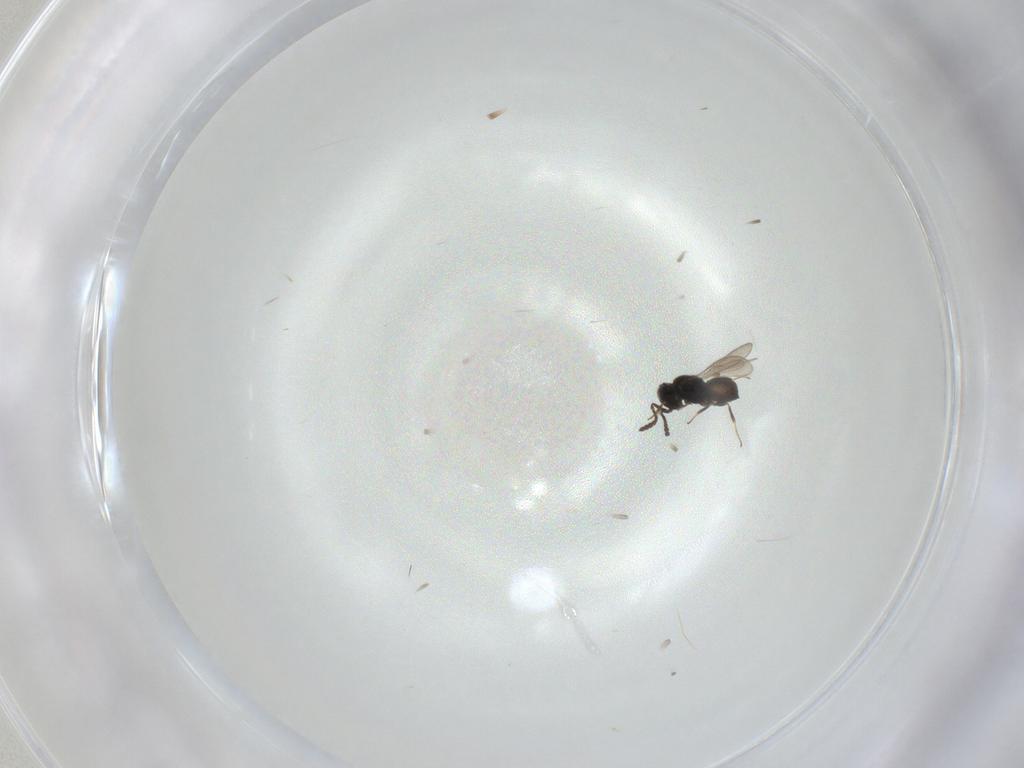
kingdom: Animalia
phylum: Arthropoda
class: Insecta
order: Hymenoptera
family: Scelionidae
